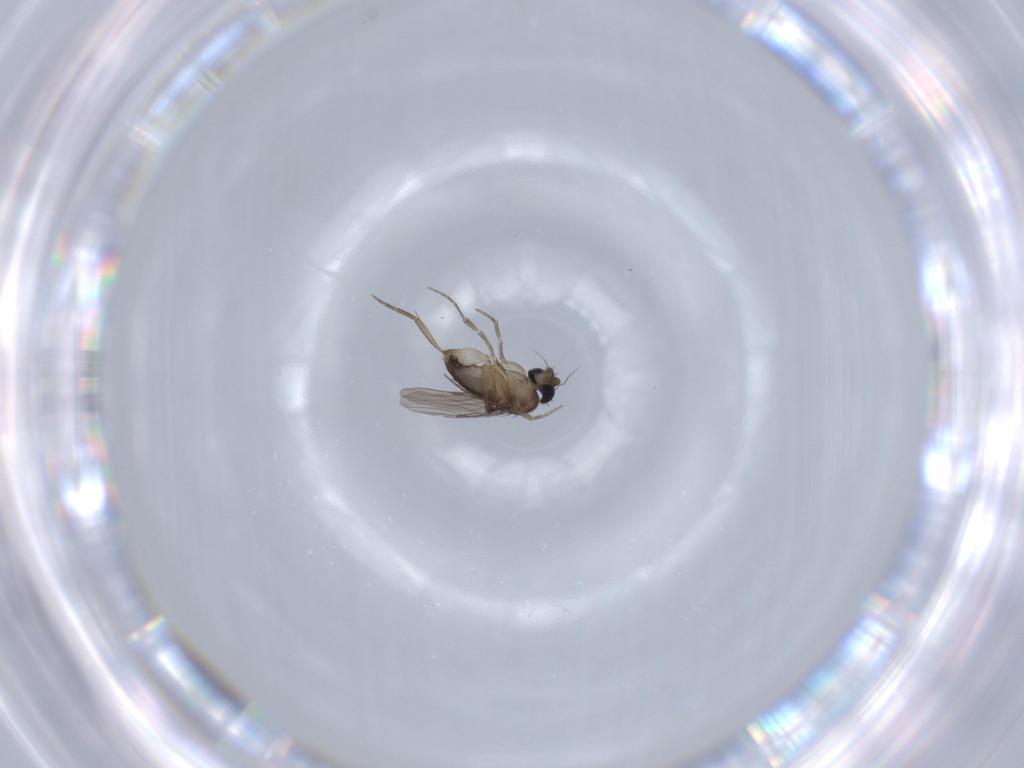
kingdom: Animalia
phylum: Arthropoda
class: Insecta
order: Diptera
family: Phoridae
